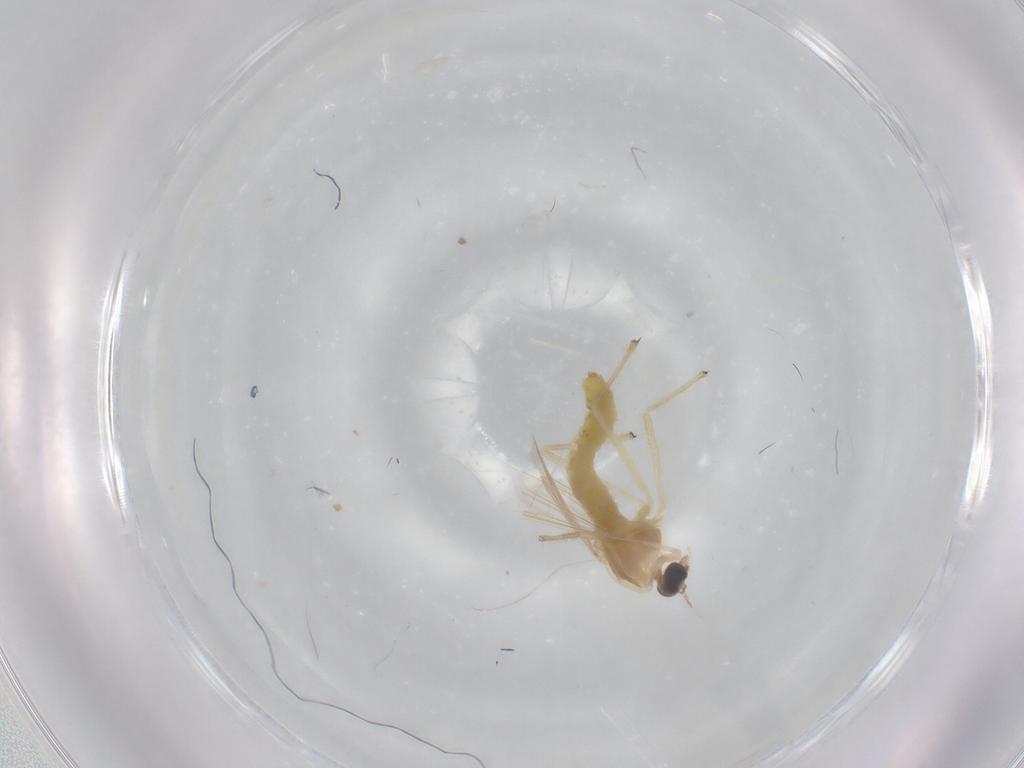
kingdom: Animalia
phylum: Arthropoda
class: Insecta
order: Diptera
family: Chironomidae
